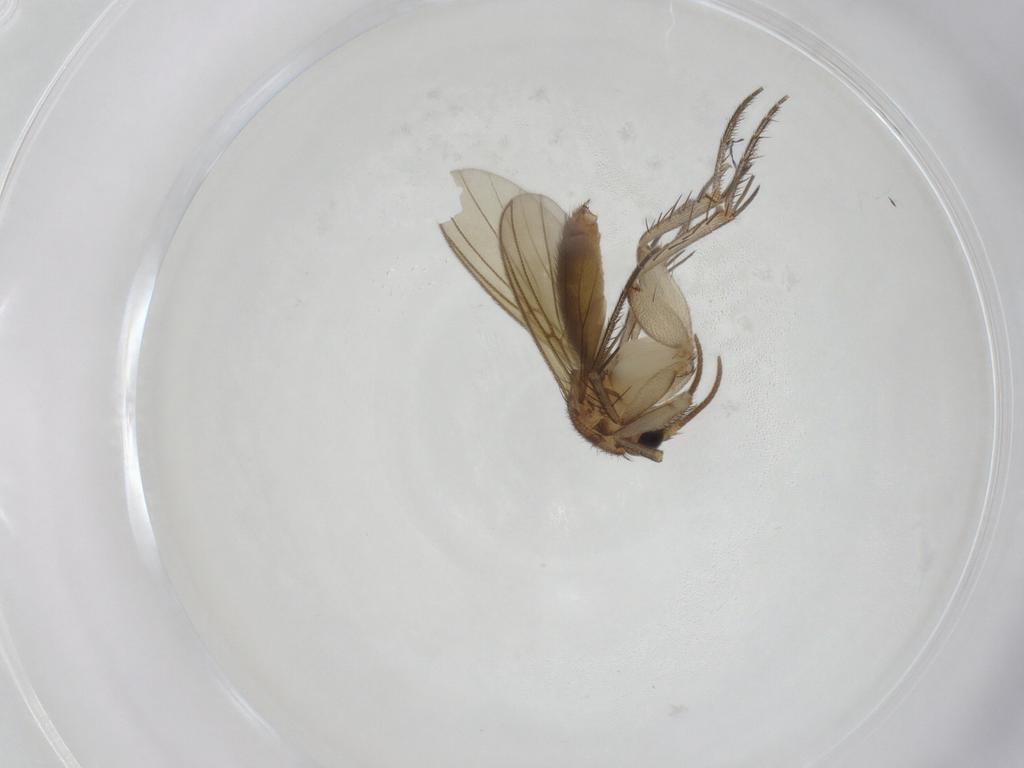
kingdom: Animalia
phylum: Arthropoda
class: Insecta
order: Diptera
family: Mycetophilidae
